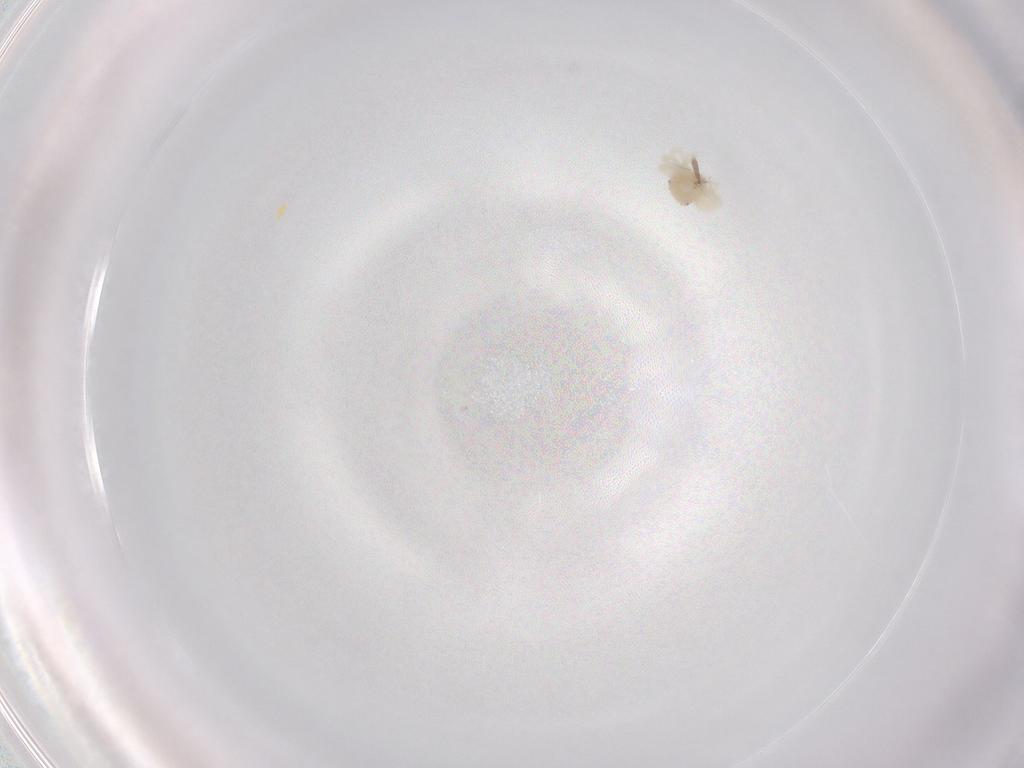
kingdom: Animalia
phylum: Arthropoda
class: Arachnida
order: Trombidiformes
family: Anystidae
